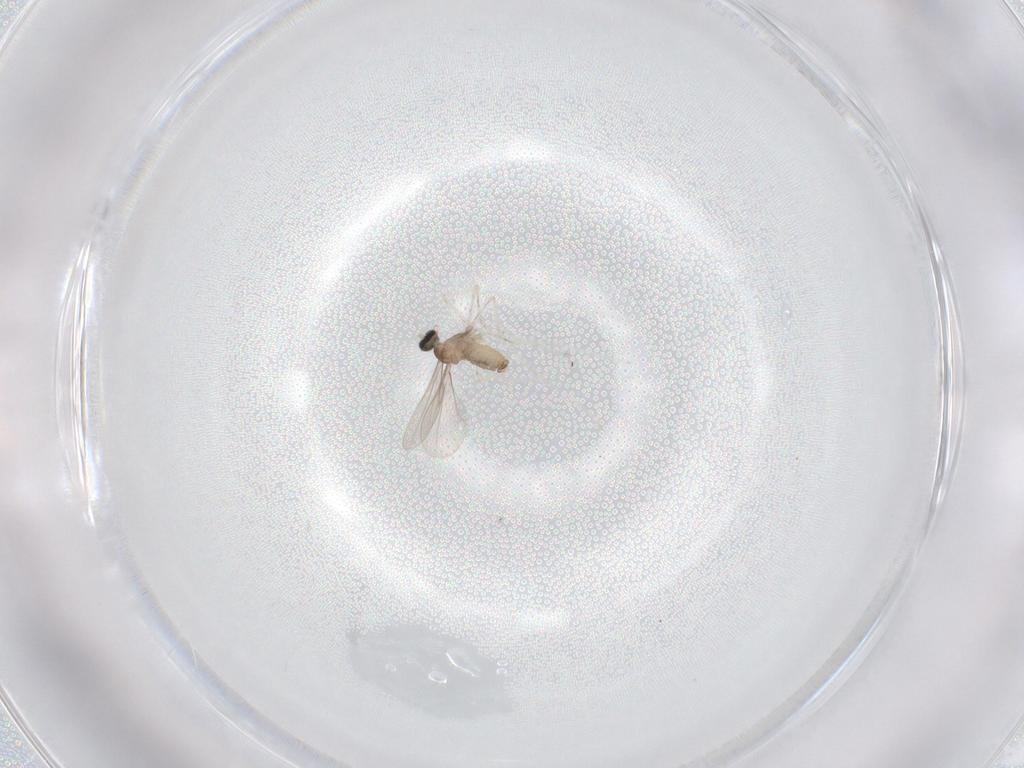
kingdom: Animalia
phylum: Arthropoda
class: Insecta
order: Diptera
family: Cecidomyiidae
